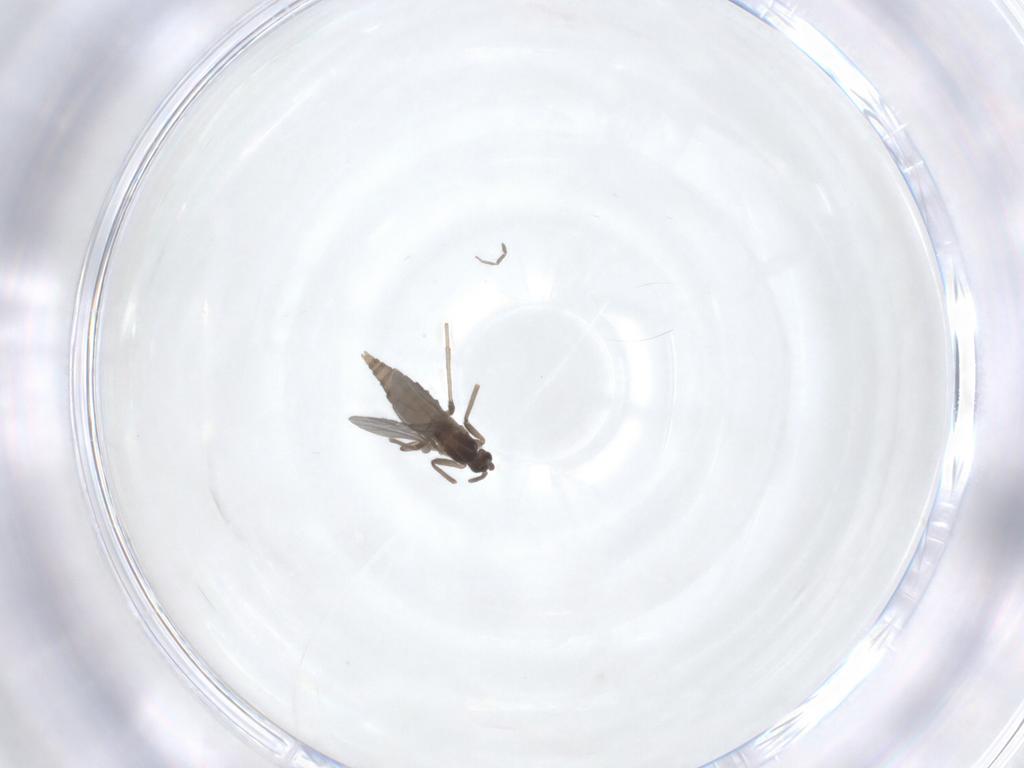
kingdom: Animalia
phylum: Arthropoda
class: Insecta
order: Diptera
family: Cecidomyiidae
